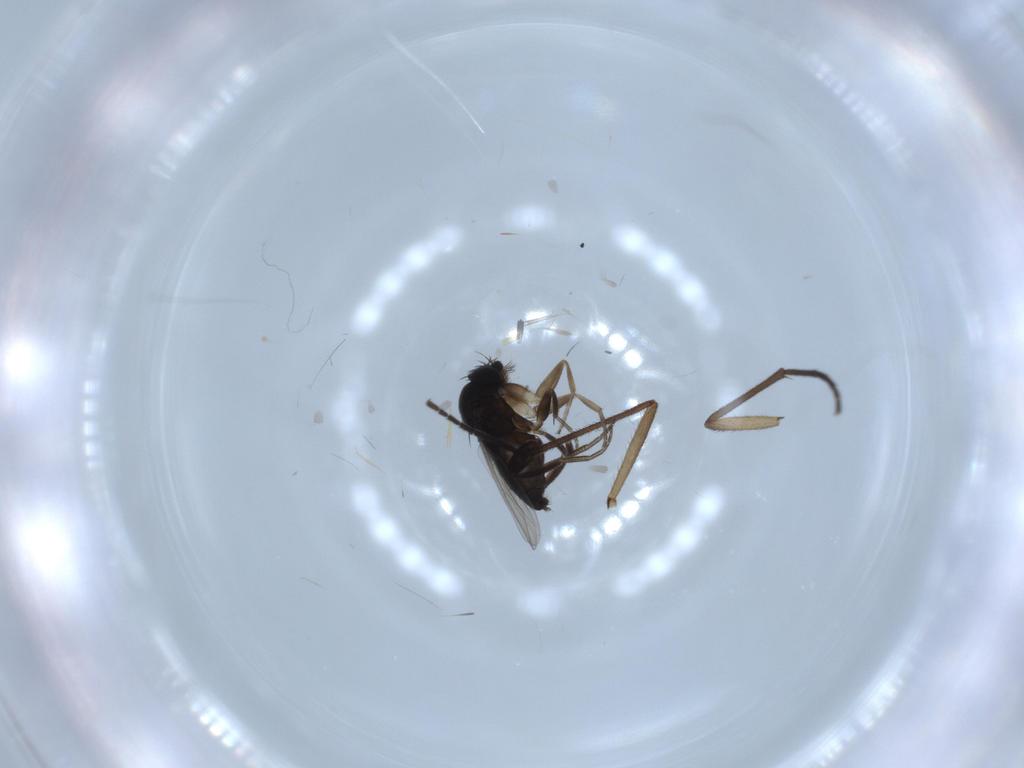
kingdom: Animalia
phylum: Arthropoda
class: Insecta
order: Diptera
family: Phoridae
